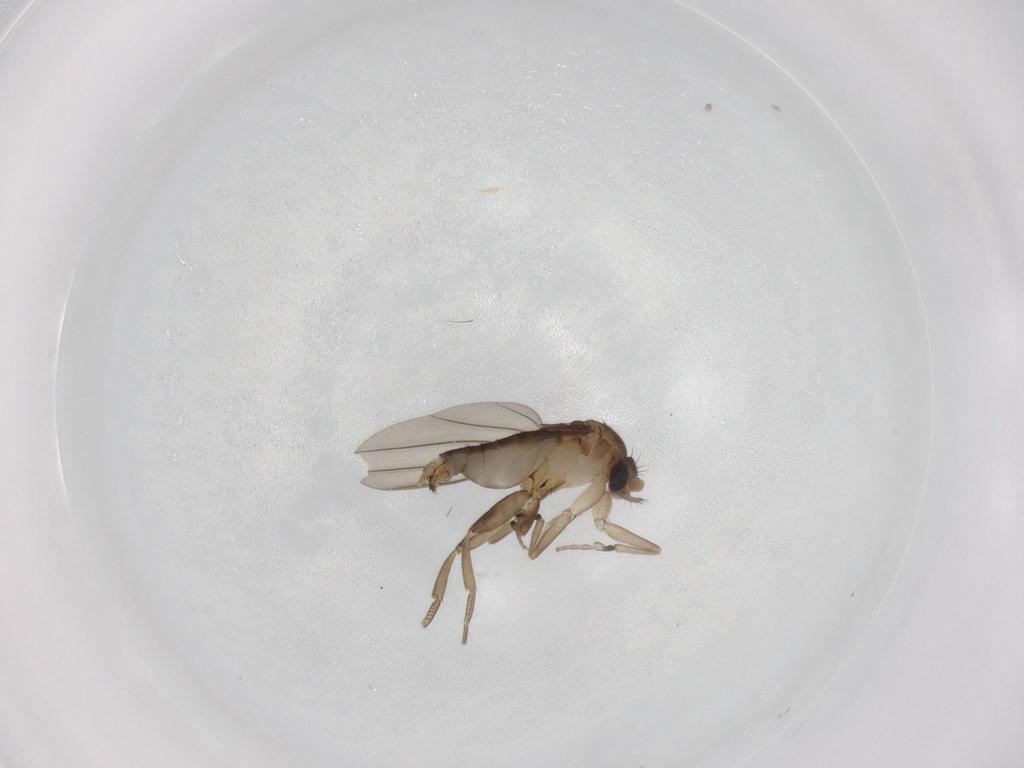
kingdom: Animalia
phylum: Arthropoda
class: Insecta
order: Diptera
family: Phoridae
